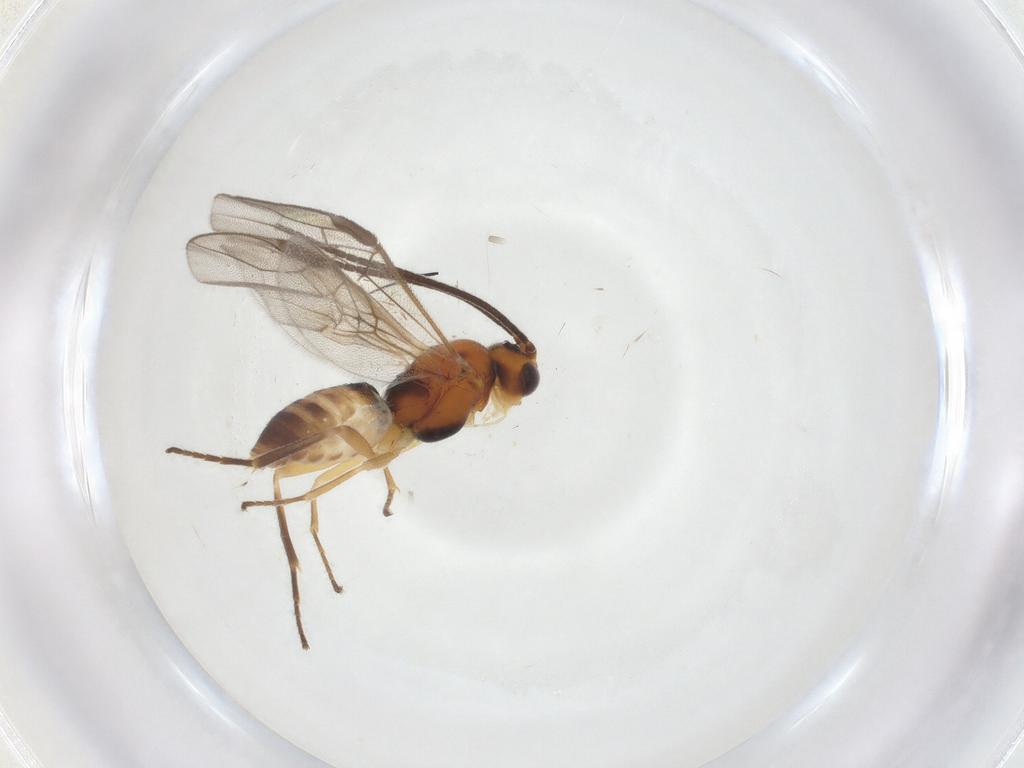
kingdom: Animalia
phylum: Arthropoda
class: Insecta
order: Hymenoptera
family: Braconidae
